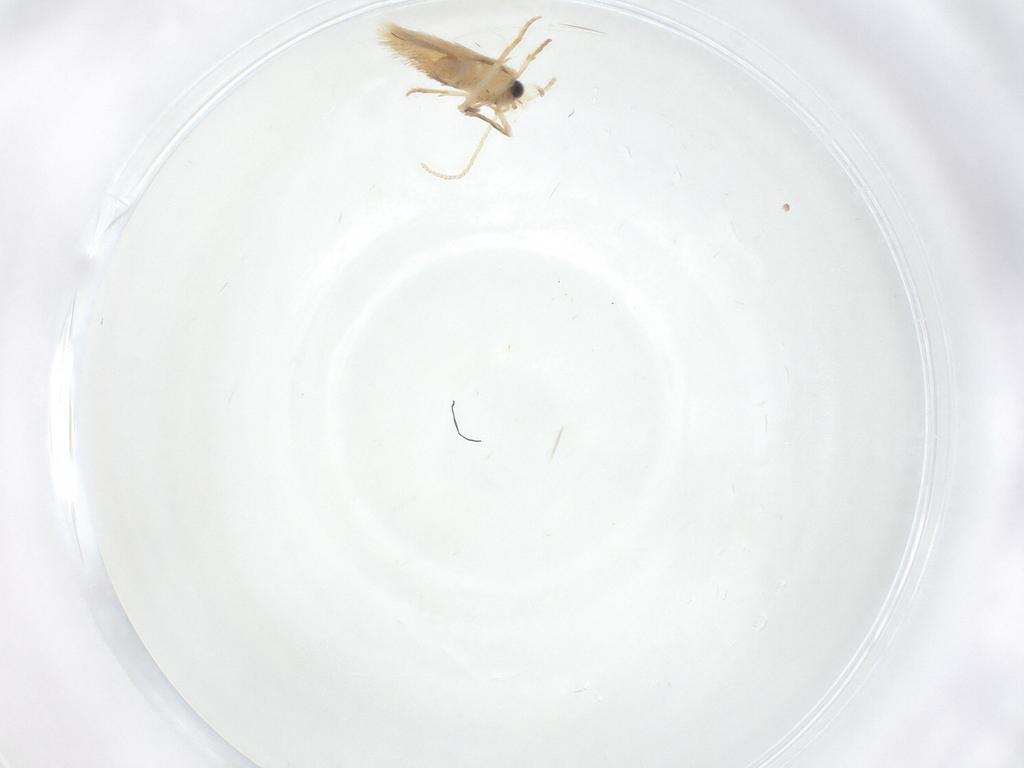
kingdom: Animalia
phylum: Arthropoda
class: Insecta
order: Lepidoptera
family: Nepticulidae
